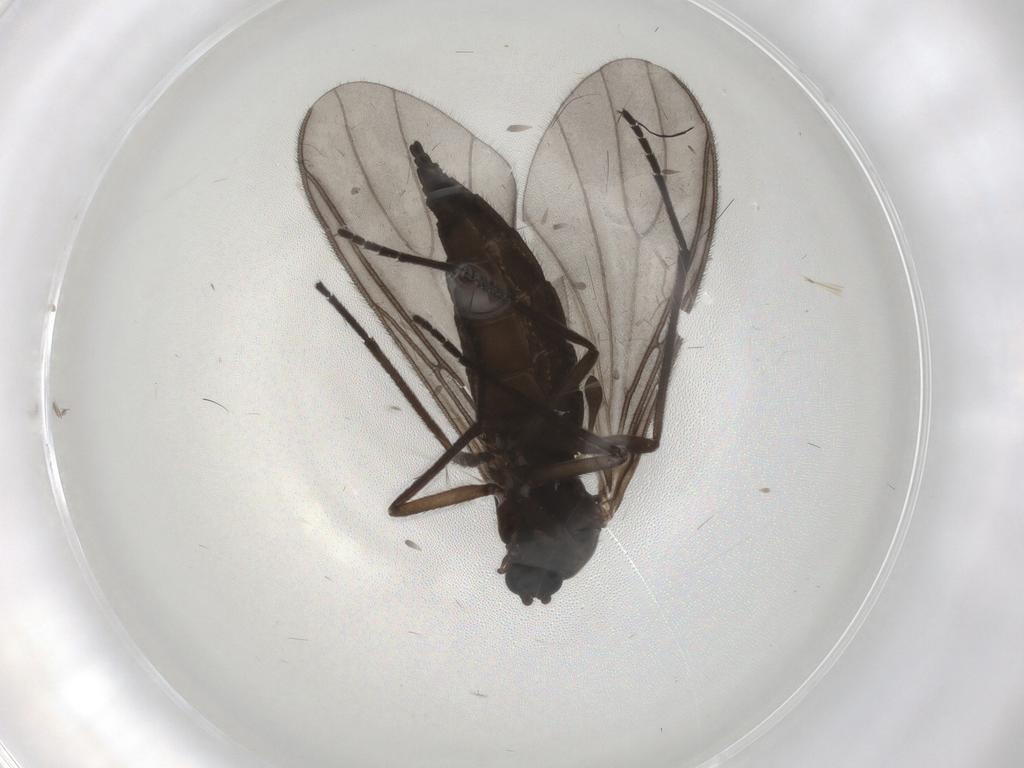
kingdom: Animalia
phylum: Arthropoda
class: Insecta
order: Diptera
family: Sciaridae
